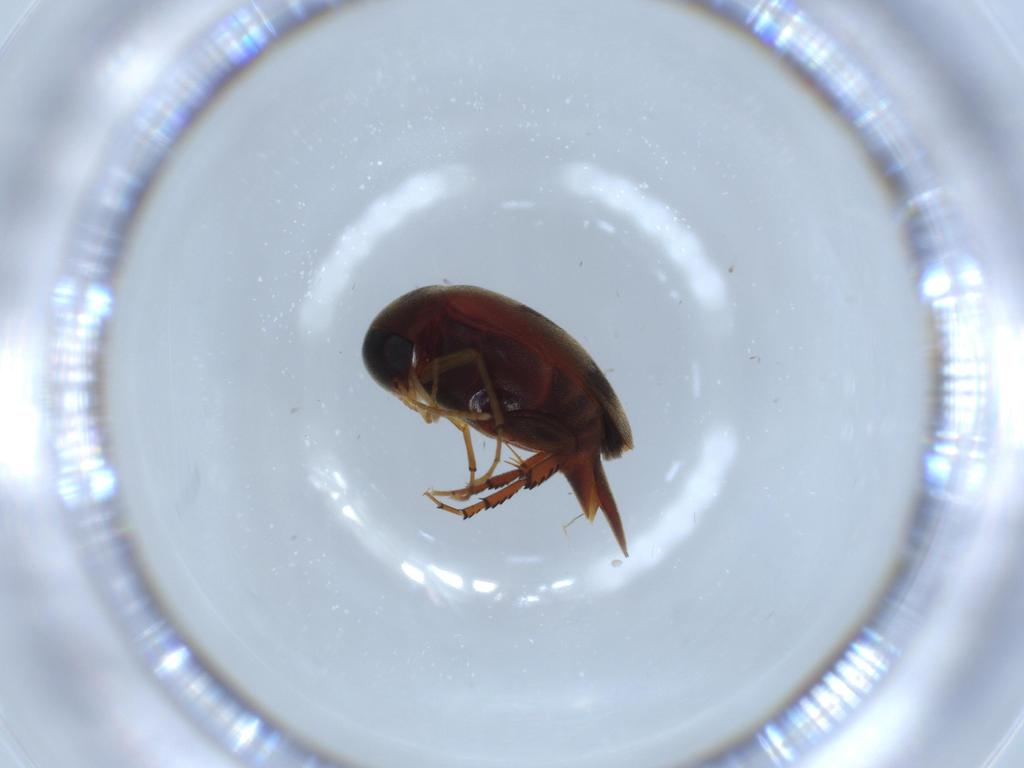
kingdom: Animalia
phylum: Arthropoda
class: Insecta
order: Coleoptera
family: Mordellidae
